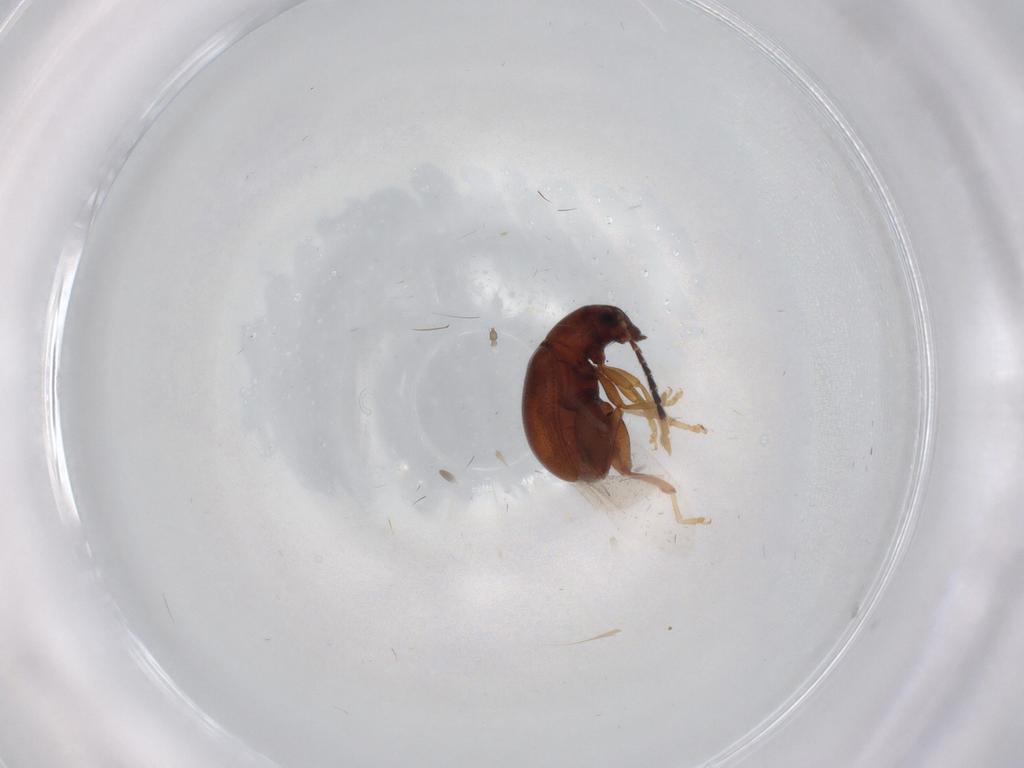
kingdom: Animalia
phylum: Arthropoda
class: Insecta
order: Coleoptera
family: Chrysomelidae
